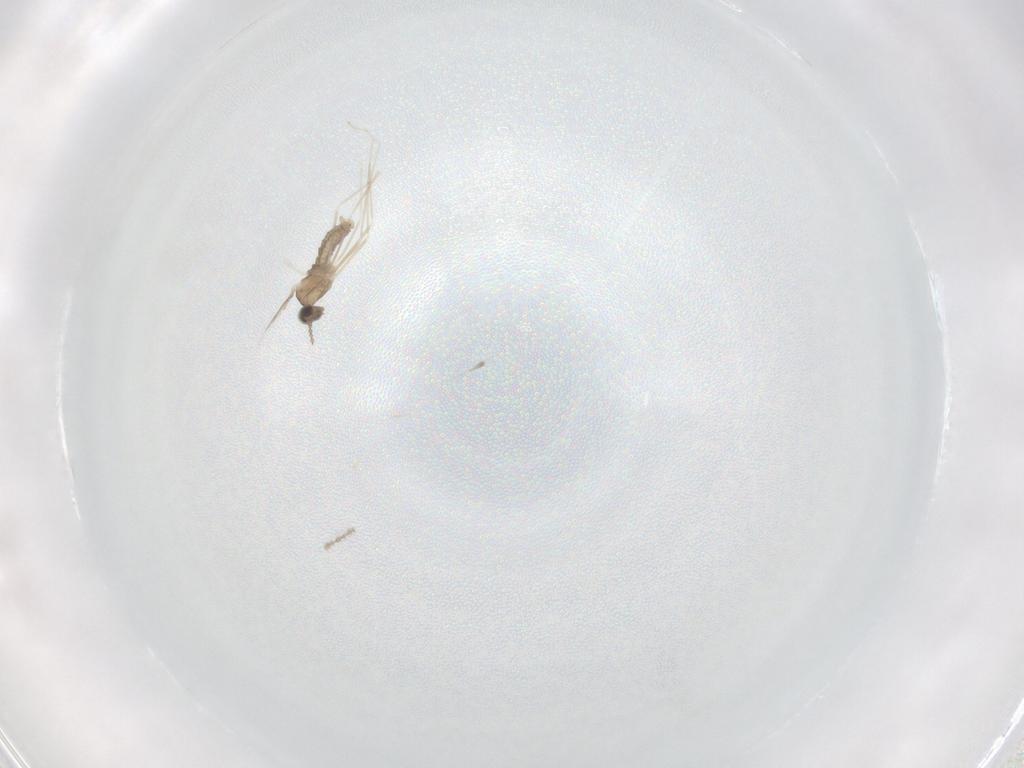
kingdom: Animalia
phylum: Arthropoda
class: Insecta
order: Diptera
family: Cecidomyiidae
